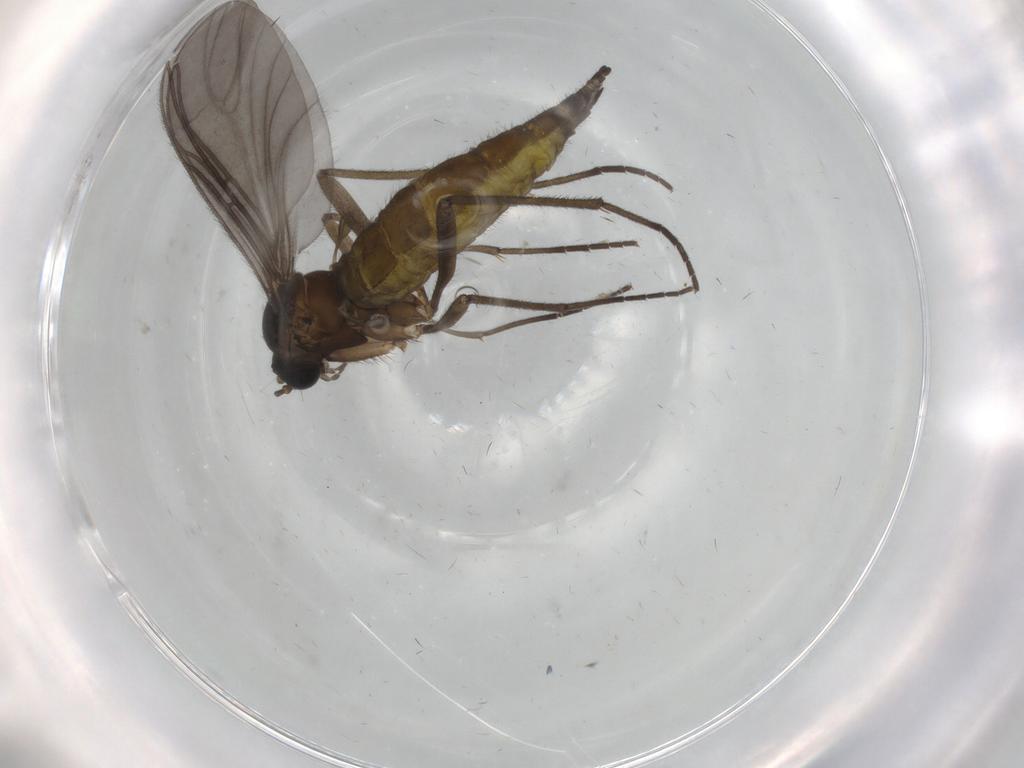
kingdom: Animalia
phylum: Arthropoda
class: Insecta
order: Diptera
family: Sciaridae
